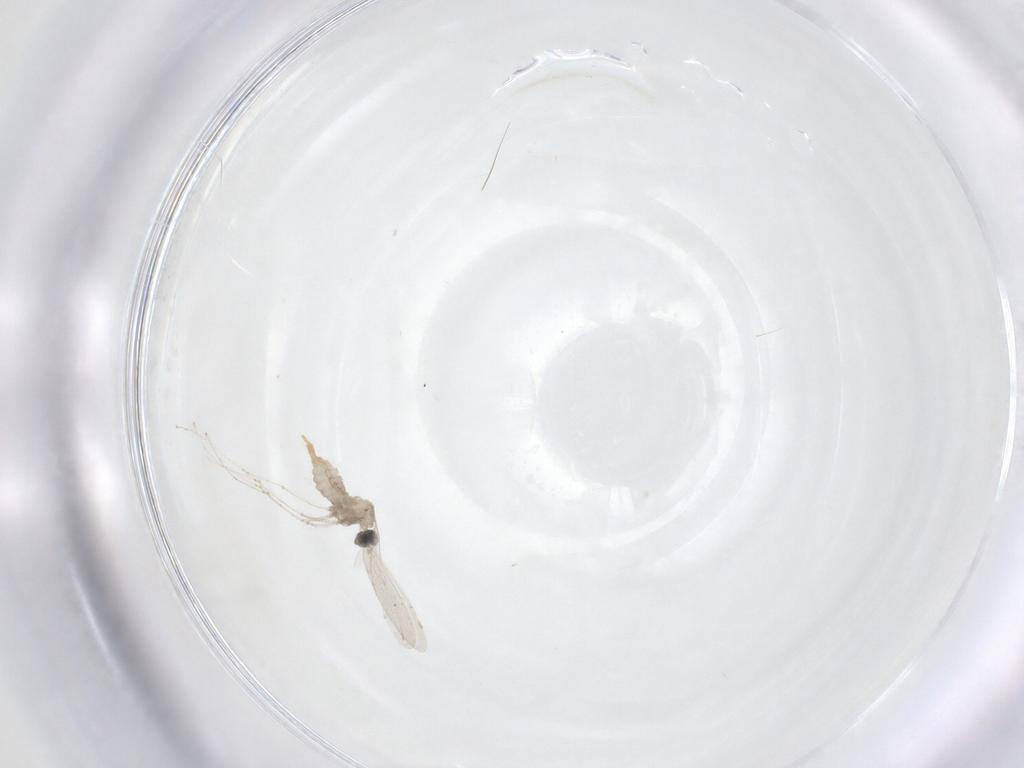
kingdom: Animalia
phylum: Arthropoda
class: Insecta
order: Diptera
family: Cecidomyiidae
